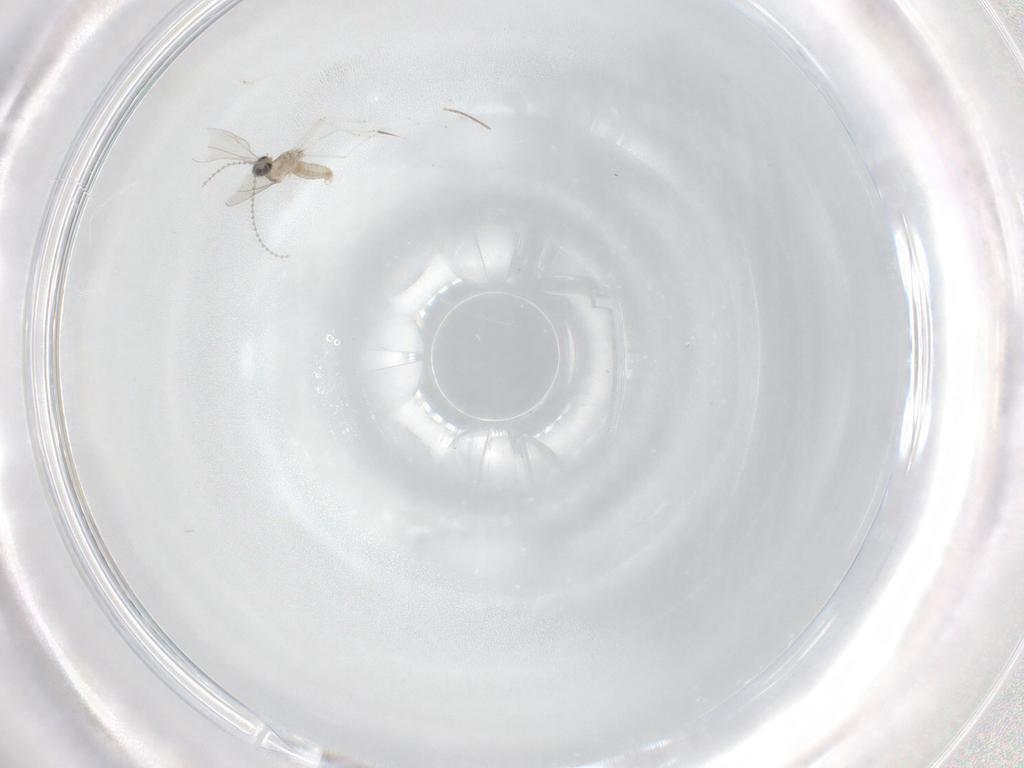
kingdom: Animalia
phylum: Arthropoda
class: Insecta
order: Diptera
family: Chironomidae
